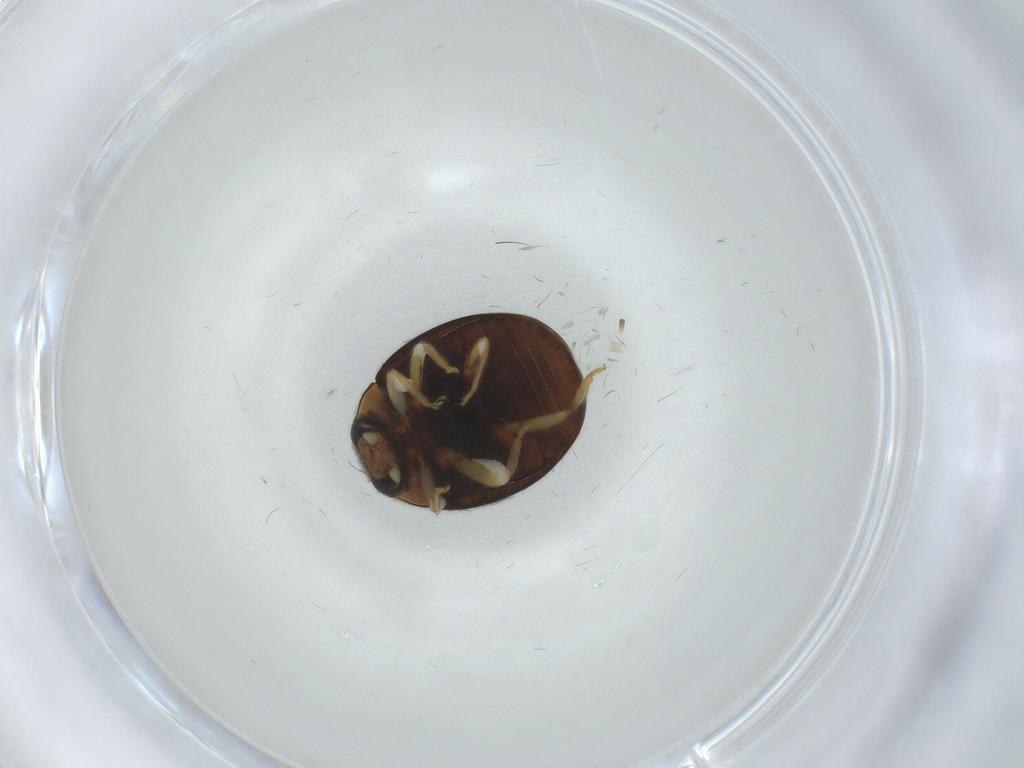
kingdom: Animalia
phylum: Arthropoda
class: Insecta
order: Coleoptera
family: Coccinellidae
